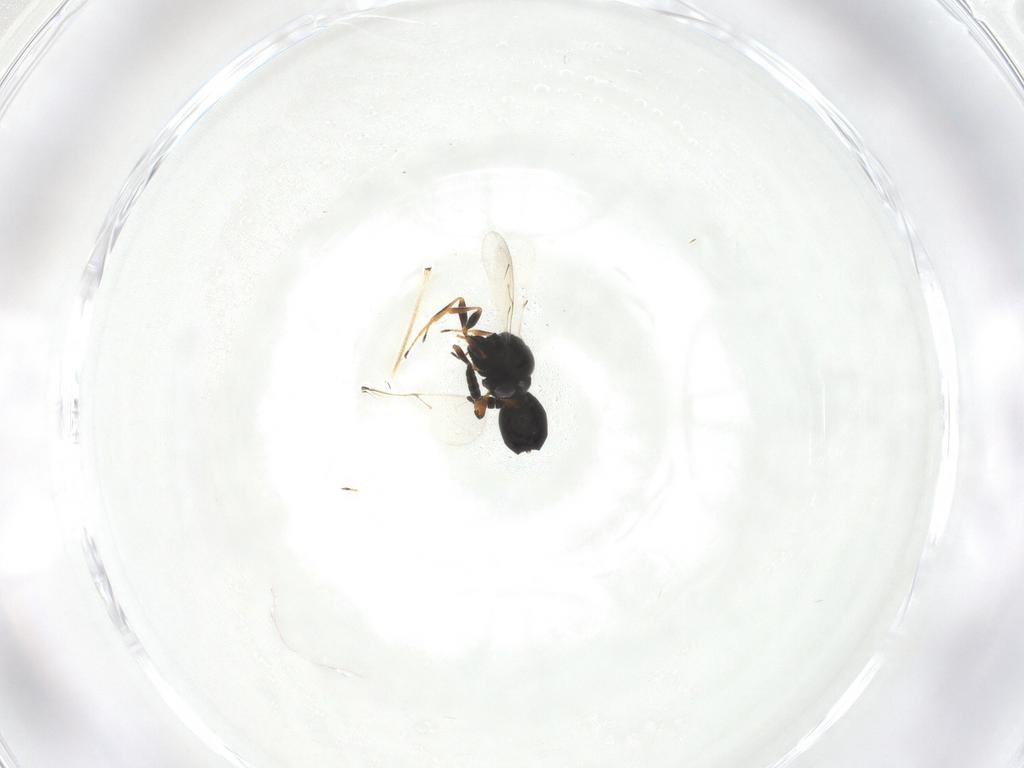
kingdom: Animalia
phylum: Arthropoda
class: Insecta
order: Hymenoptera
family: Scelionidae
